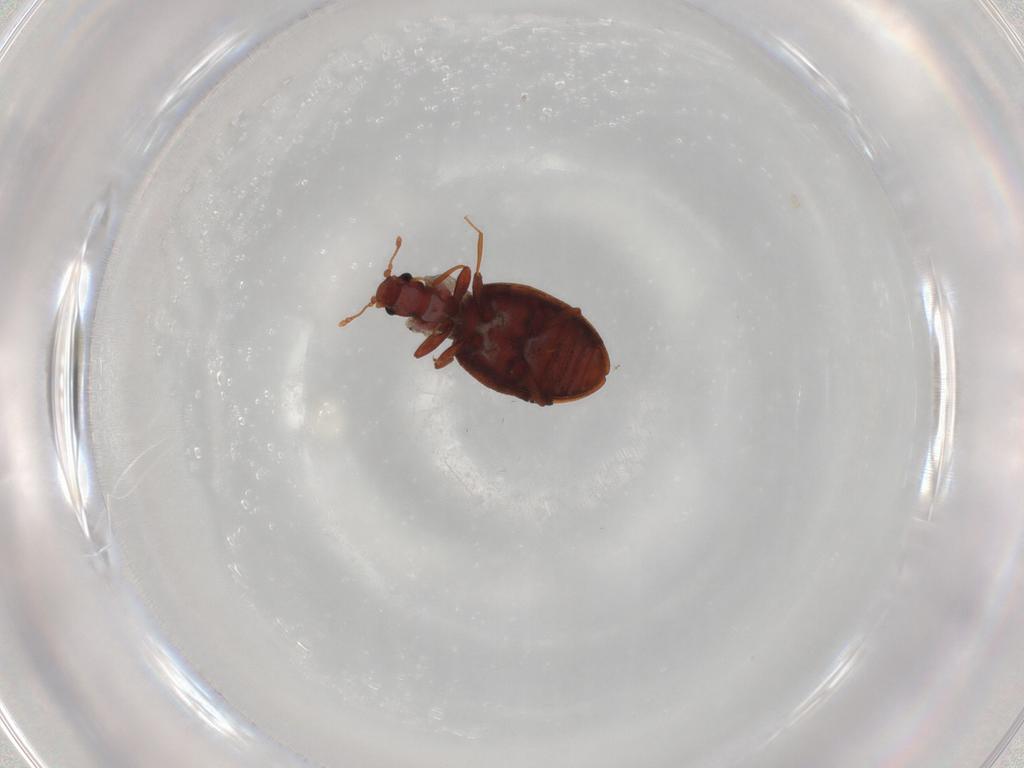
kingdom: Animalia
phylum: Arthropoda
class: Insecta
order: Coleoptera
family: Latridiidae
